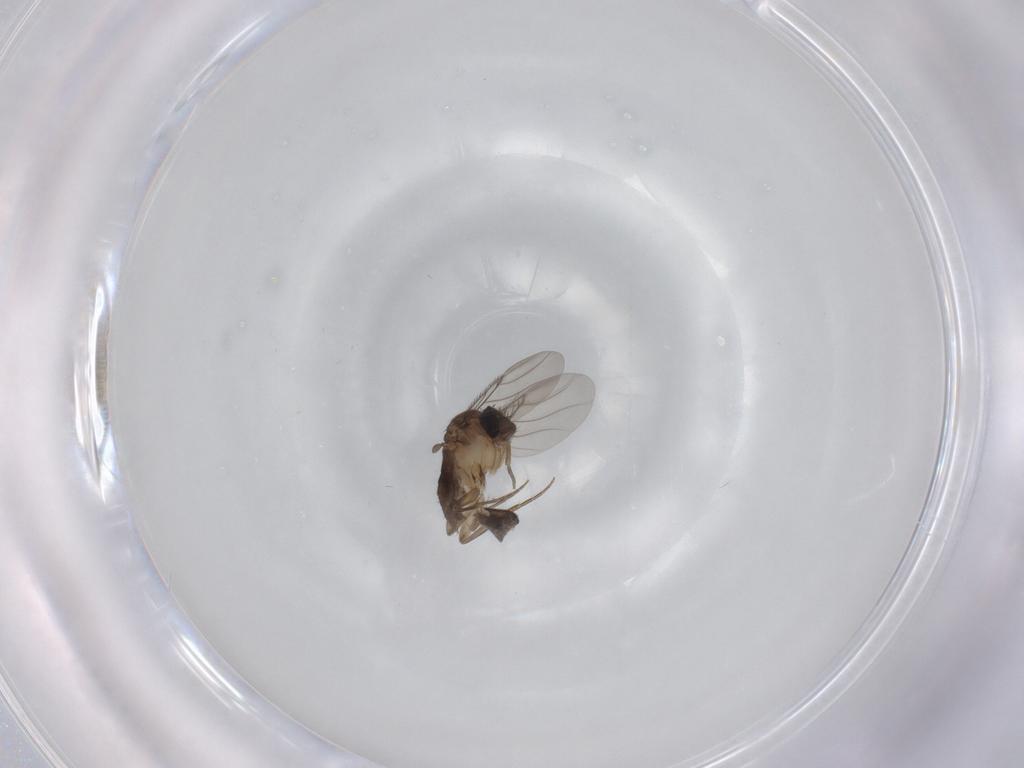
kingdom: Animalia
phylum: Arthropoda
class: Insecta
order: Diptera
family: Phoridae
